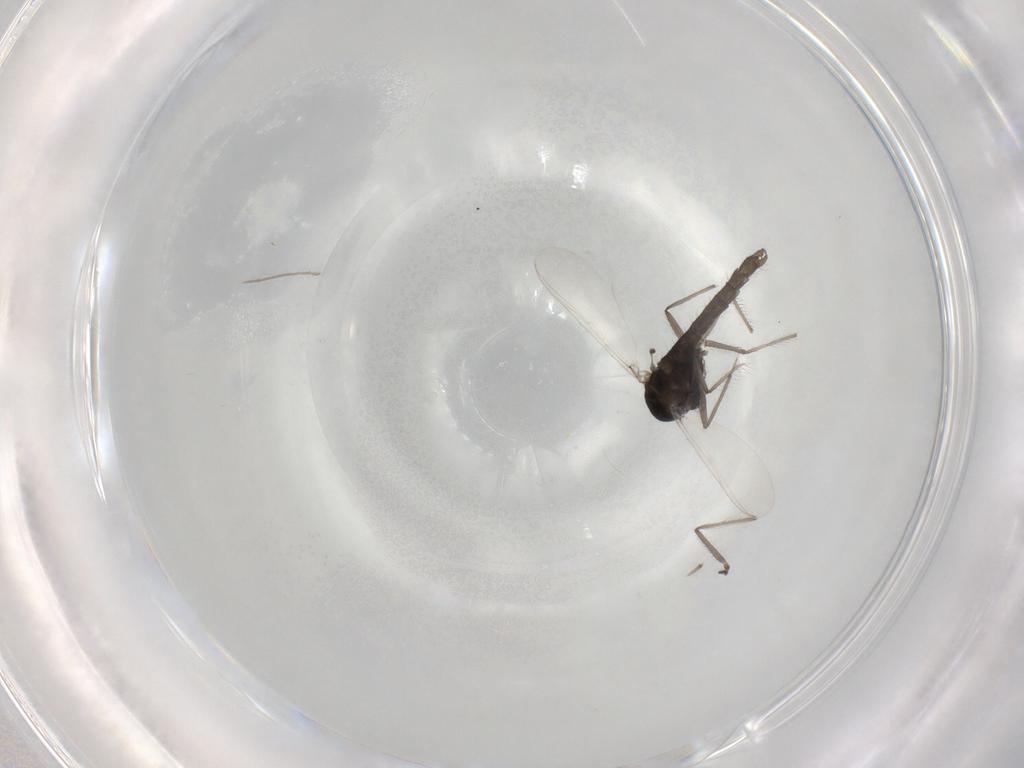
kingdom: Animalia
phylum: Arthropoda
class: Insecta
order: Diptera
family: Chironomidae
